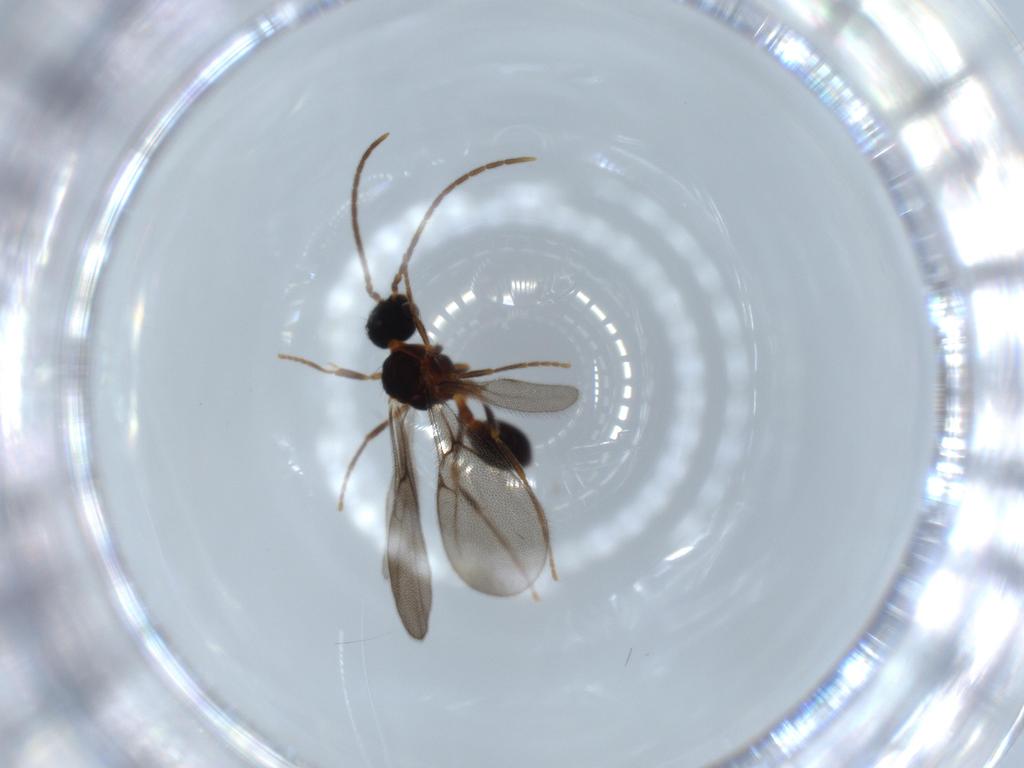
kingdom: Animalia
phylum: Arthropoda
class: Insecta
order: Hymenoptera
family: Formicidae
